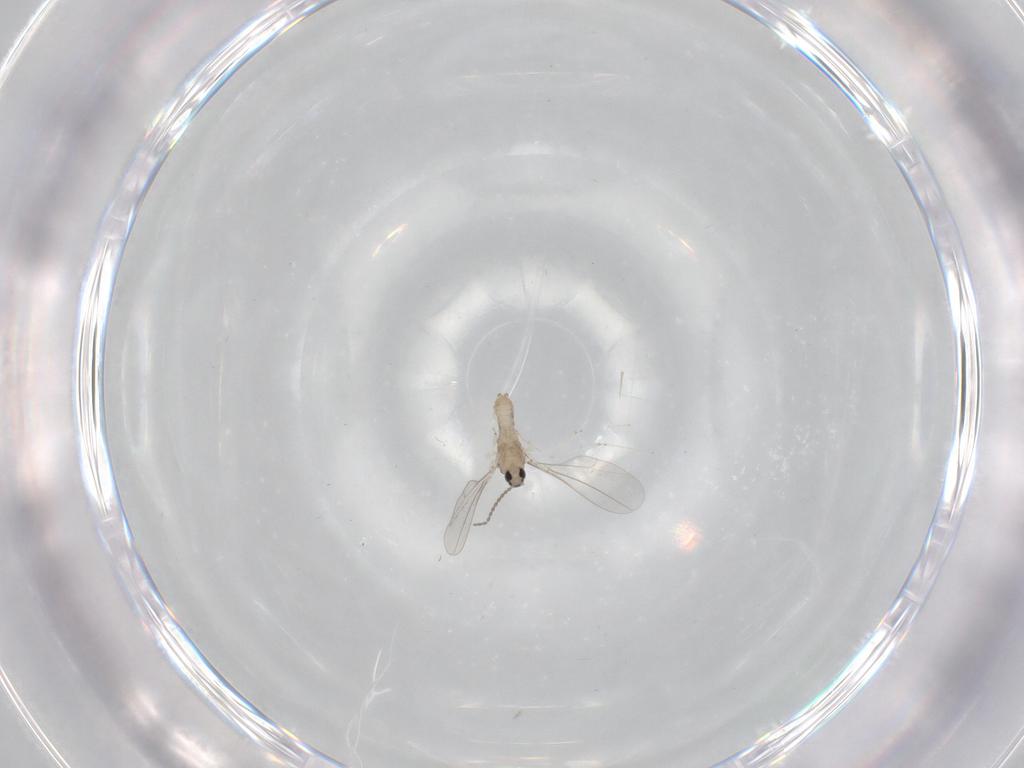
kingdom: Animalia
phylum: Arthropoda
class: Insecta
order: Diptera
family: Cecidomyiidae
